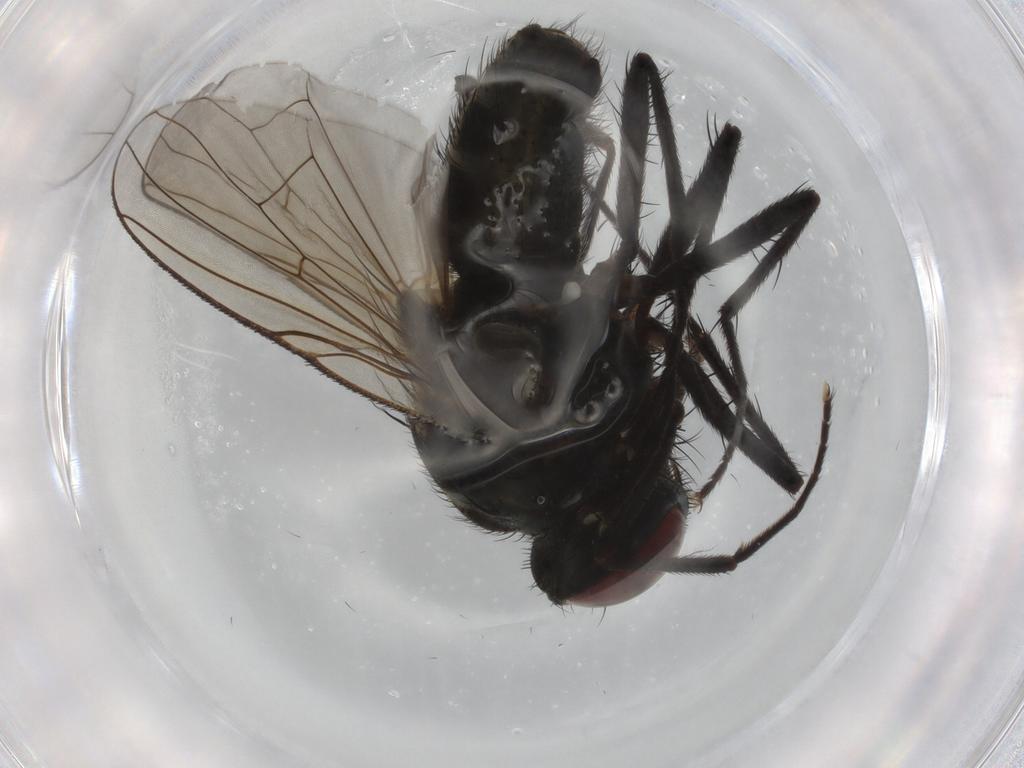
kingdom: Animalia
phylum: Arthropoda
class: Insecta
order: Diptera
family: Muscidae
